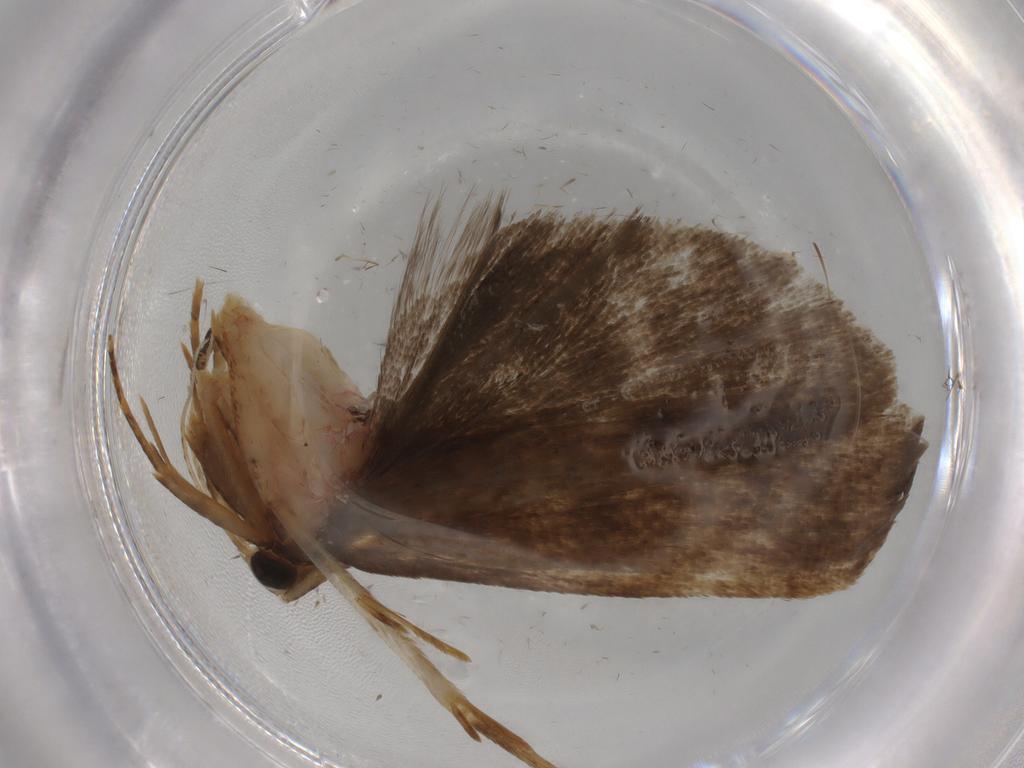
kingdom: Animalia
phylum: Arthropoda
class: Insecta
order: Lepidoptera
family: Autostichidae
